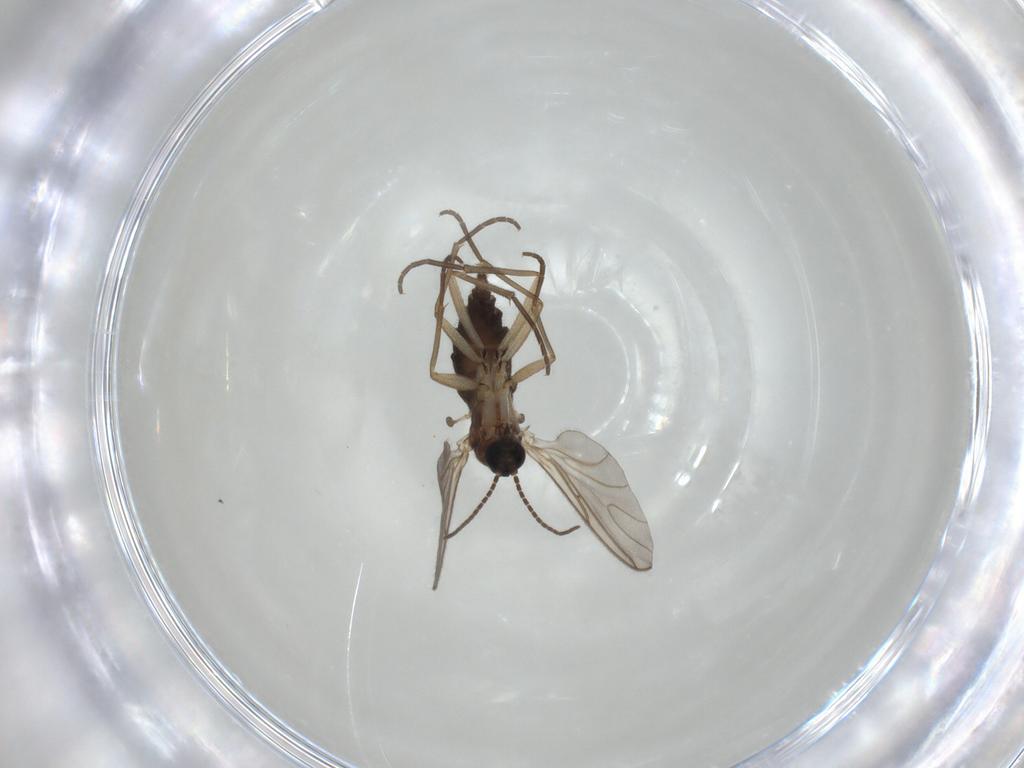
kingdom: Animalia
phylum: Arthropoda
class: Insecta
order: Diptera
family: Sciaridae
